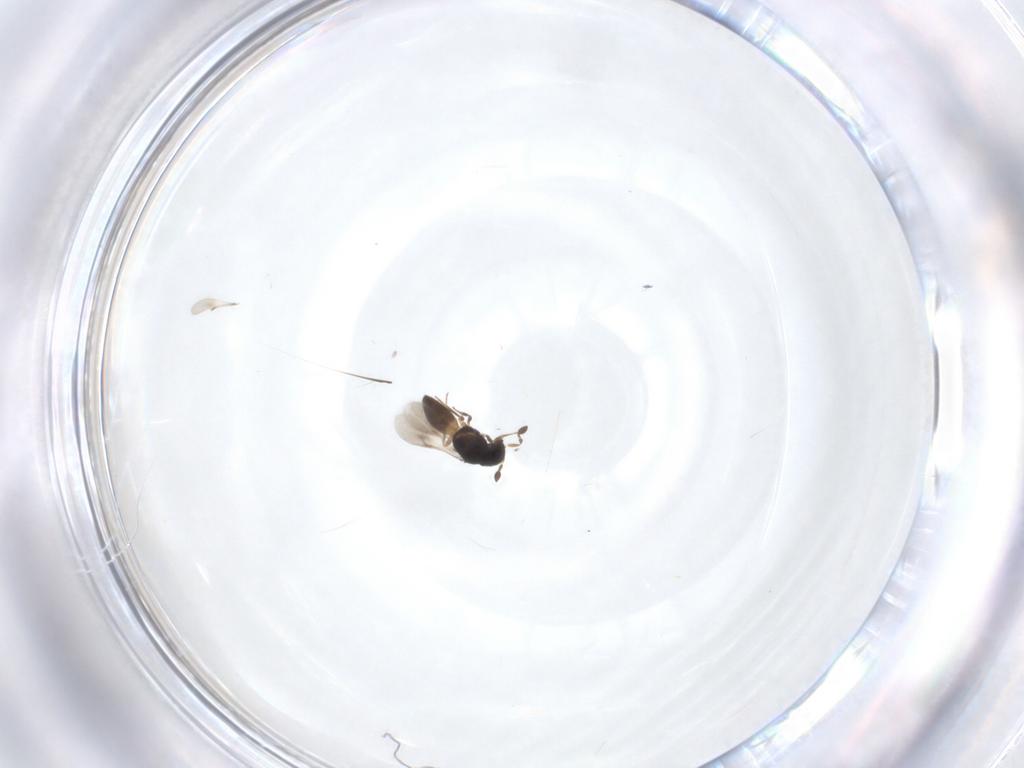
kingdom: Animalia
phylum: Arthropoda
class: Insecta
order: Hymenoptera
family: Scelionidae
